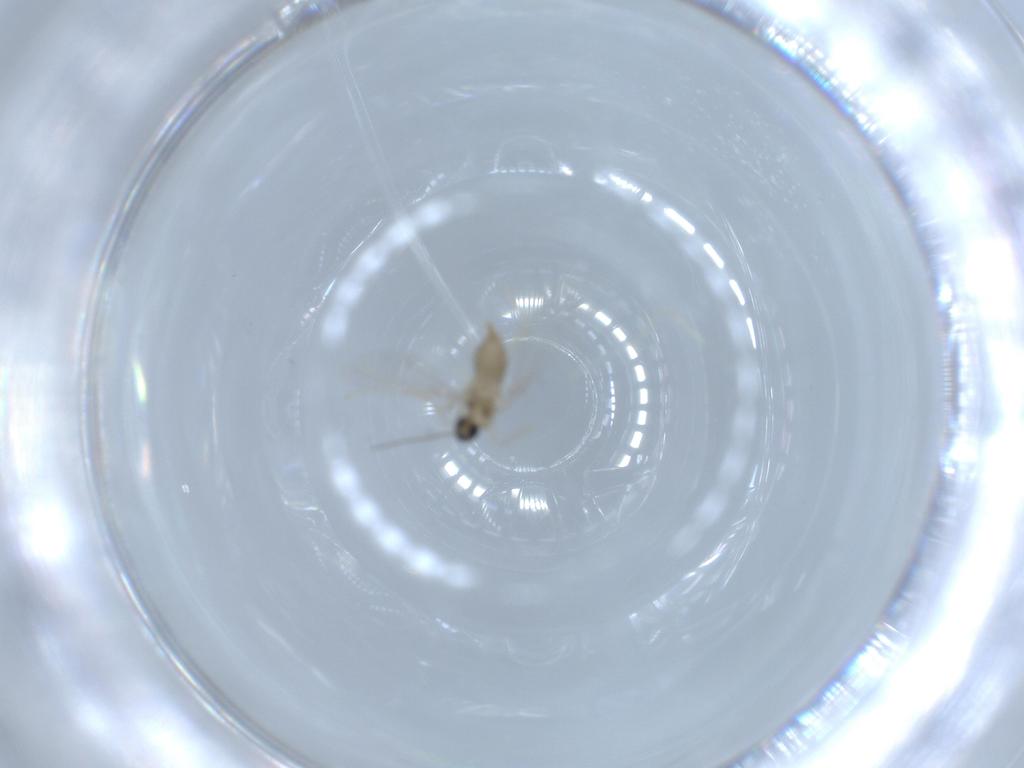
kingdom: Animalia
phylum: Arthropoda
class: Insecta
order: Diptera
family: Cecidomyiidae
